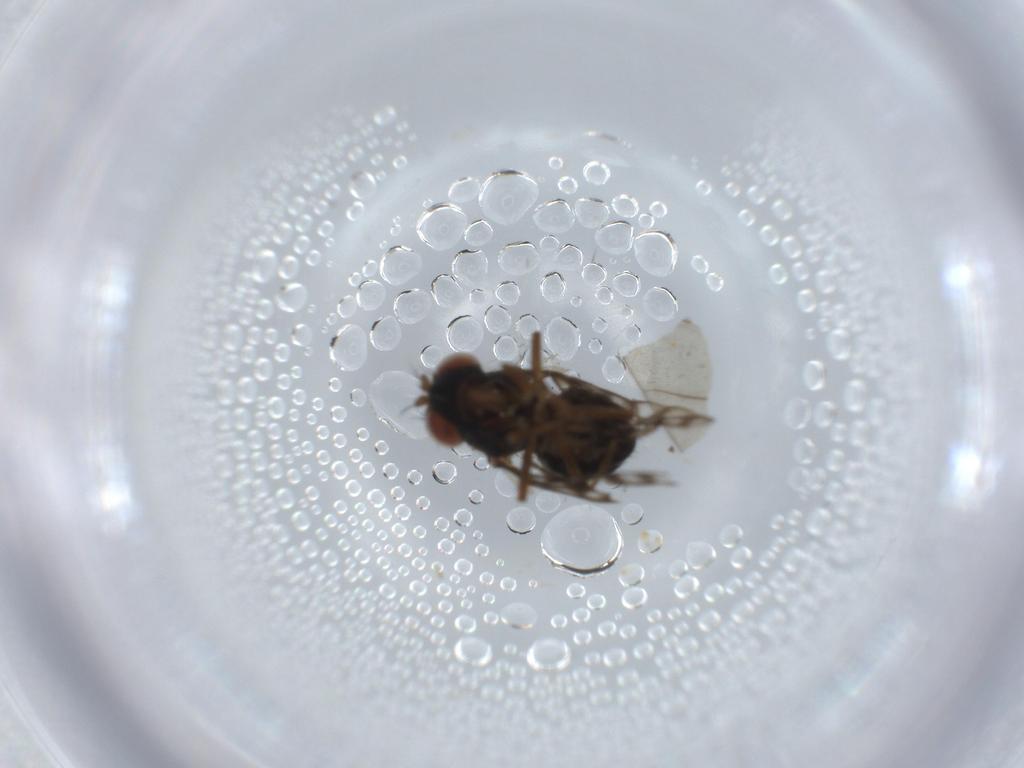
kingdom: Animalia
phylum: Arthropoda
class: Insecta
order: Diptera
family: Ephydridae
